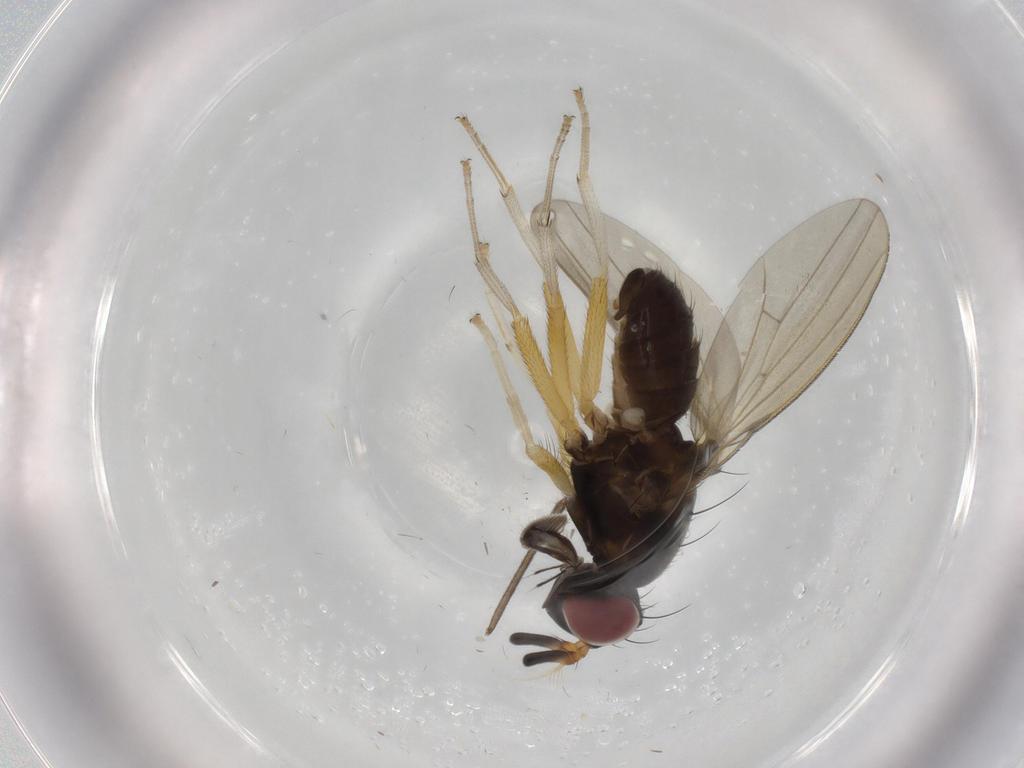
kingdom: Animalia
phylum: Arthropoda
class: Insecta
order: Diptera
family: Lauxaniidae
